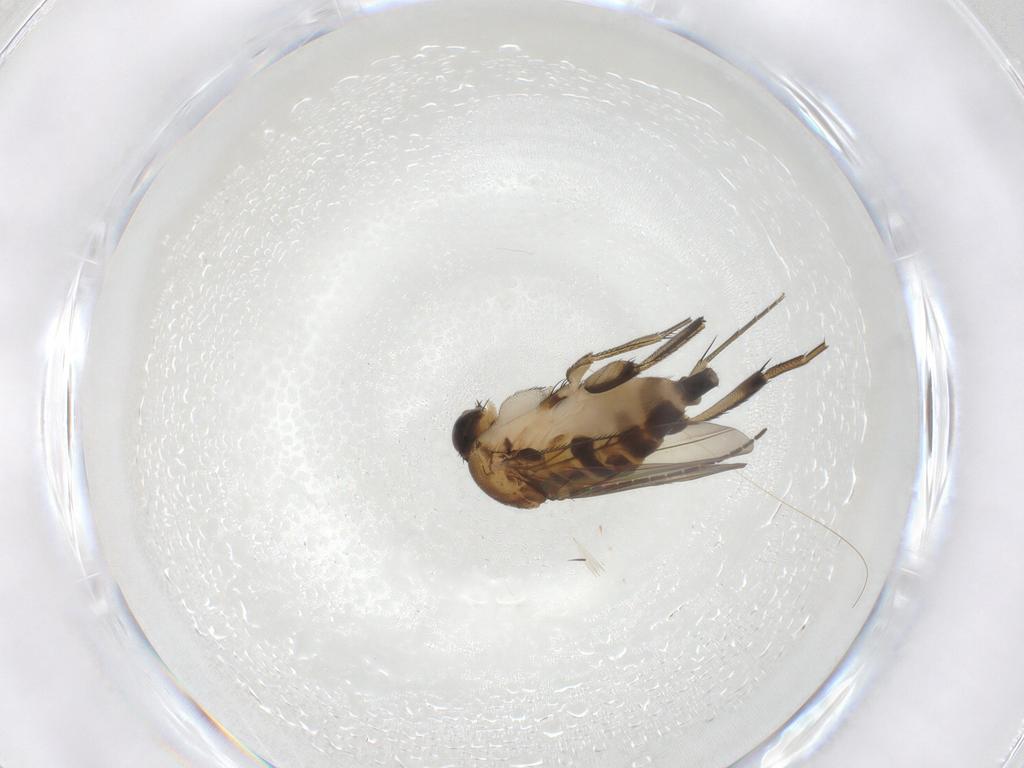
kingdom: Animalia
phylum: Arthropoda
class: Insecta
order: Diptera
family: Phoridae
